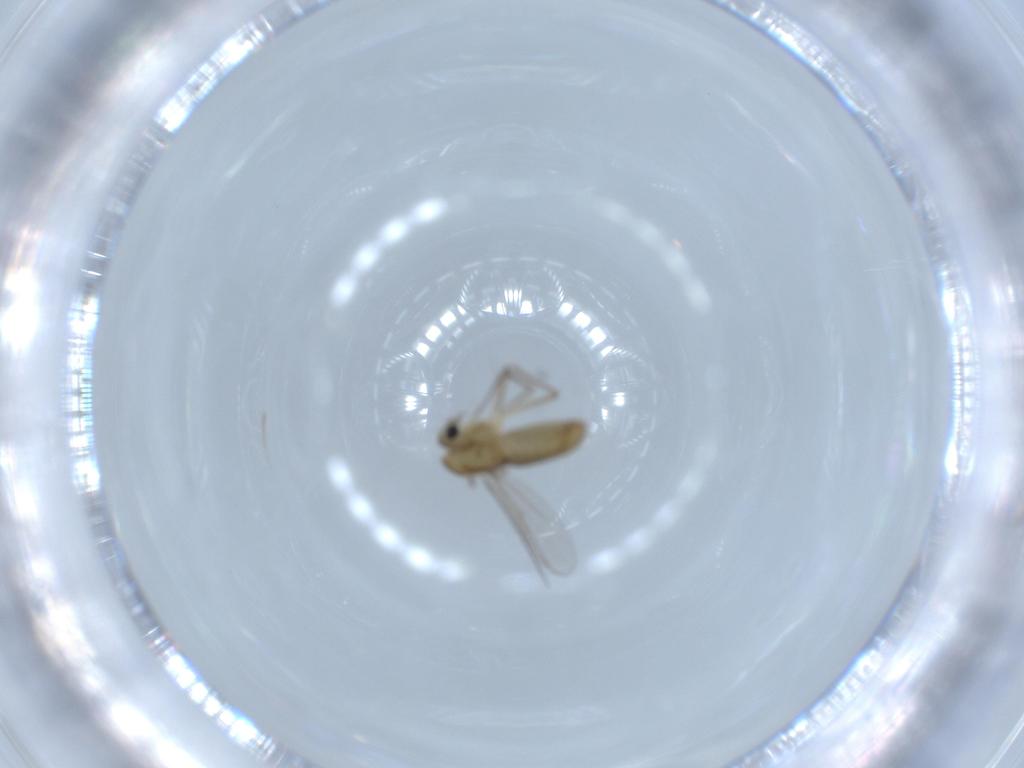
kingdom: Animalia
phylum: Arthropoda
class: Insecta
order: Diptera
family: Chironomidae
